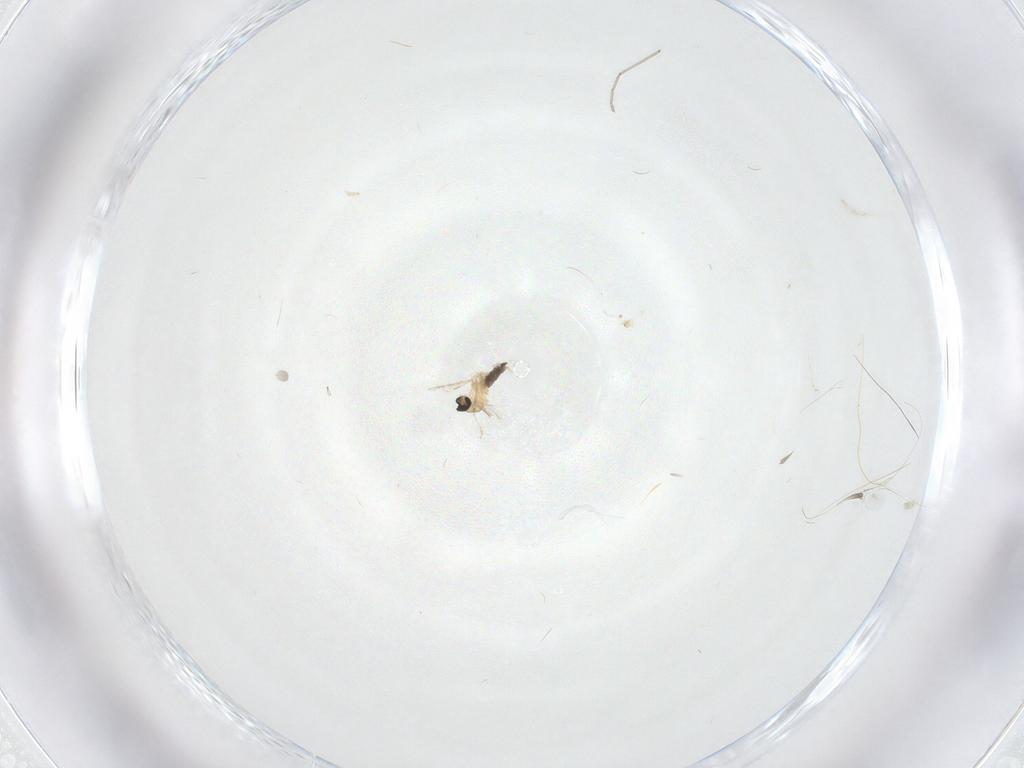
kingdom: Animalia
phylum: Arthropoda
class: Insecta
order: Diptera
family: Cecidomyiidae
